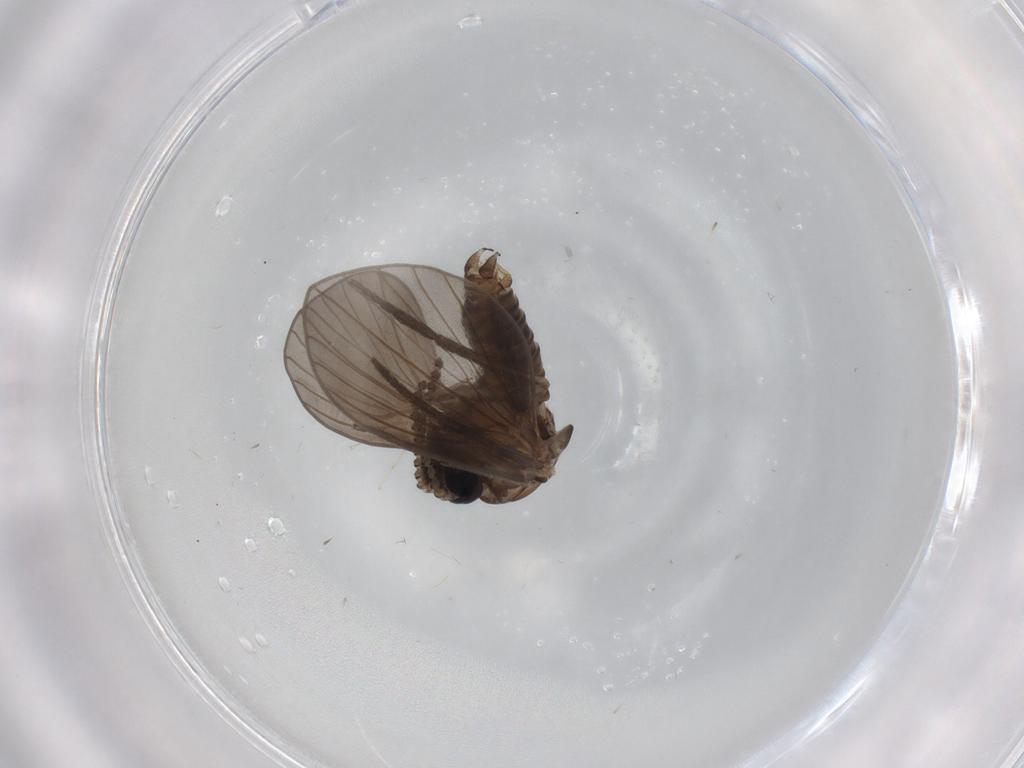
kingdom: Animalia
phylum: Arthropoda
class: Insecta
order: Diptera
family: Psychodidae
